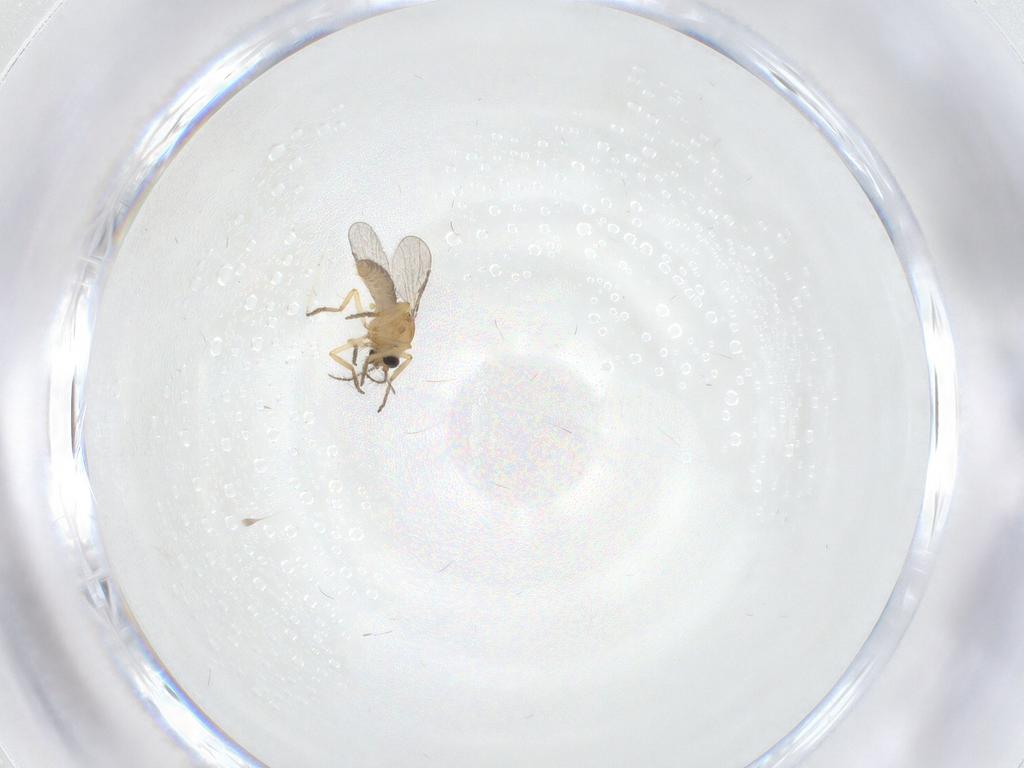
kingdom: Animalia
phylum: Arthropoda
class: Insecta
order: Diptera
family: Ceratopogonidae
